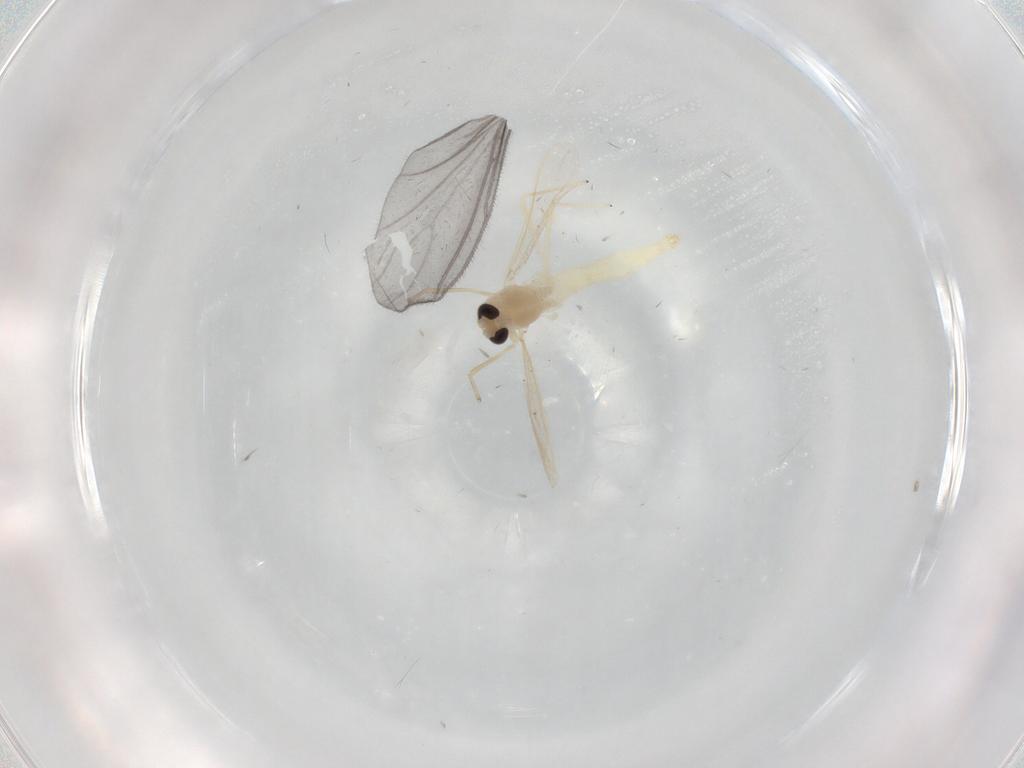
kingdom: Animalia
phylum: Arthropoda
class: Insecta
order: Diptera
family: Chironomidae
